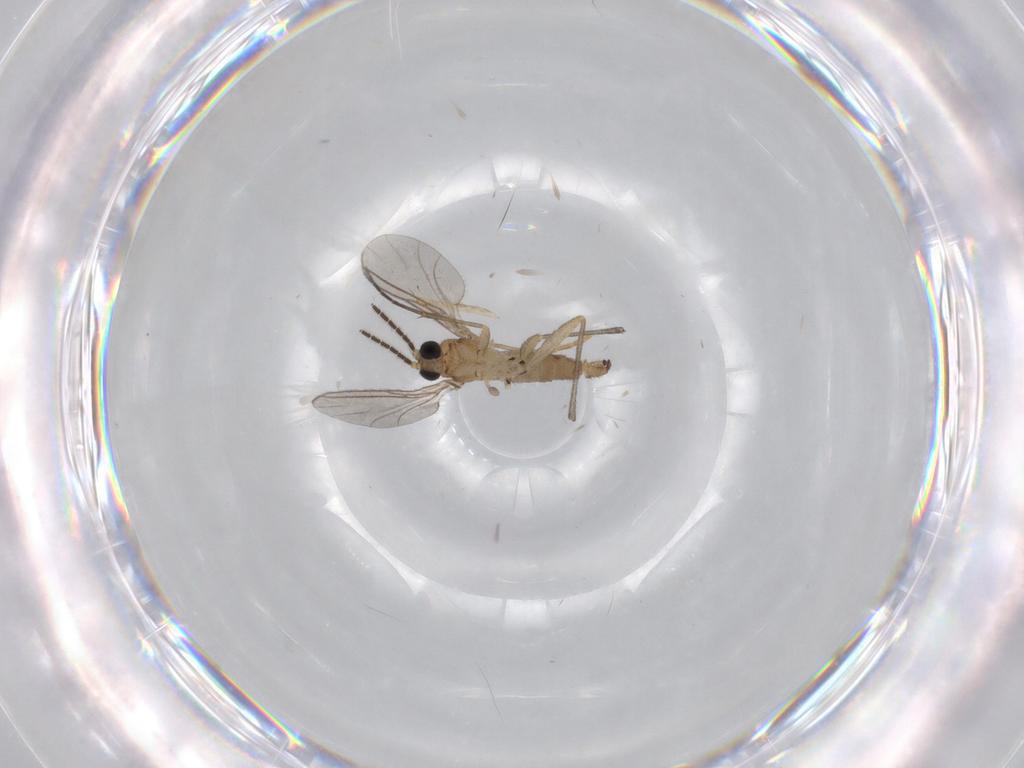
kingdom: Animalia
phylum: Arthropoda
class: Insecta
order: Diptera
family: Psychodidae
